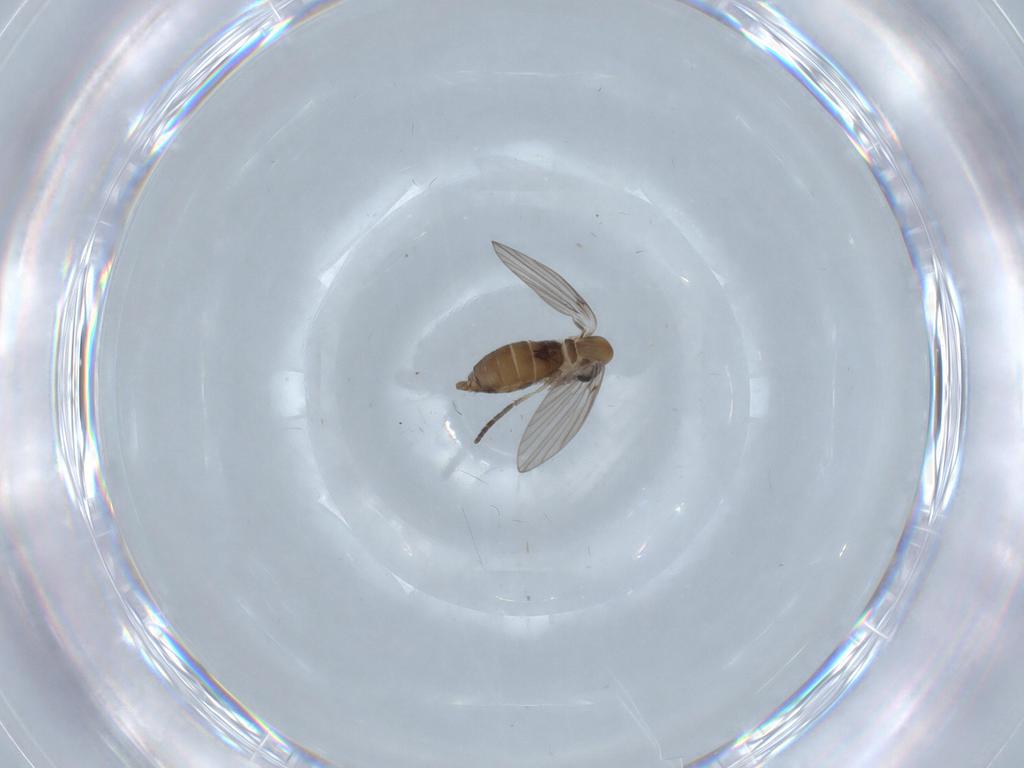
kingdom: Animalia
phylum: Arthropoda
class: Insecta
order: Diptera
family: Psychodidae
